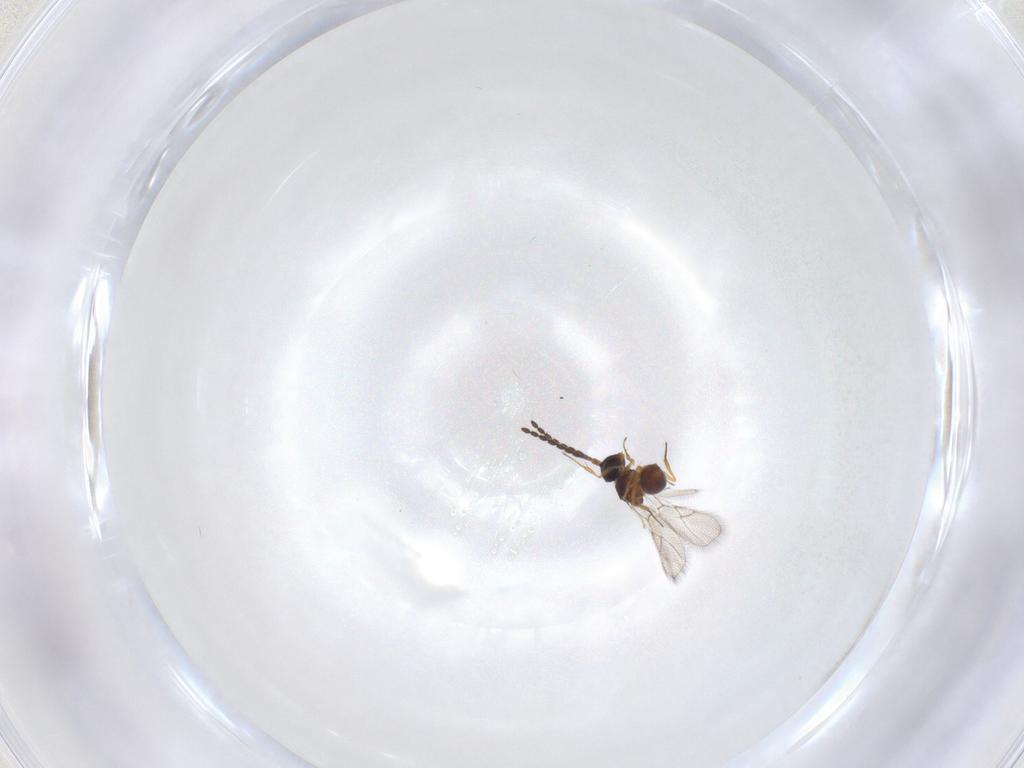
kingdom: Animalia
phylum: Arthropoda
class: Insecta
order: Hymenoptera
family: Figitidae
